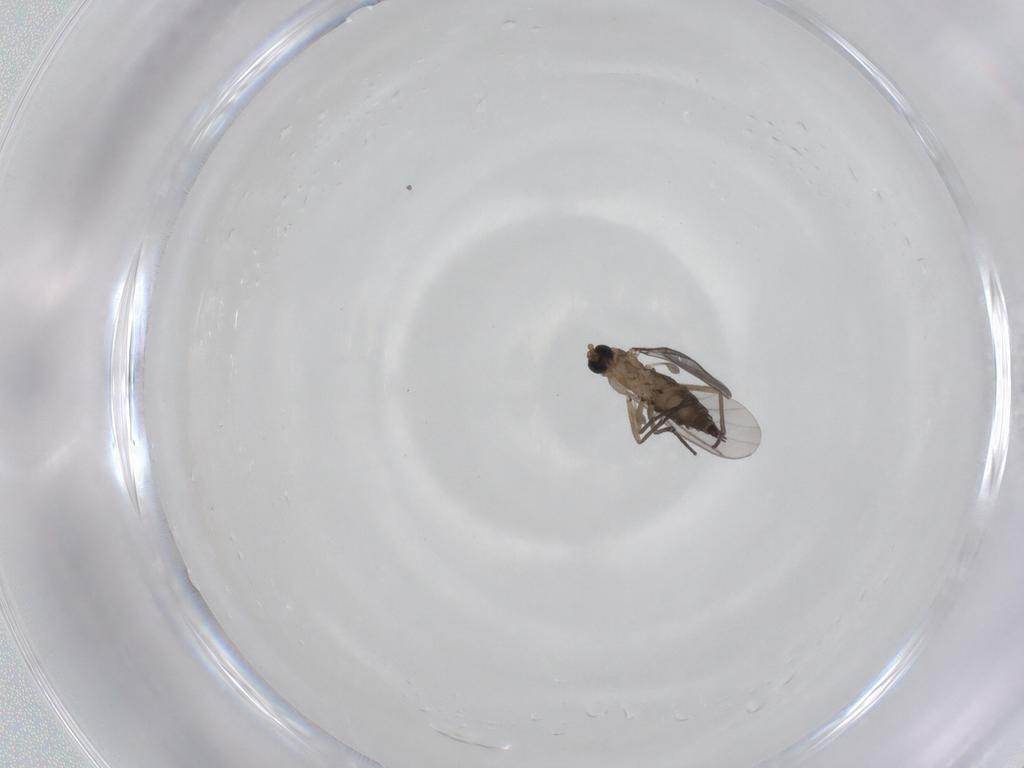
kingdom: Animalia
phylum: Arthropoda
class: Insecta
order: Diptera
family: Sciaridae
